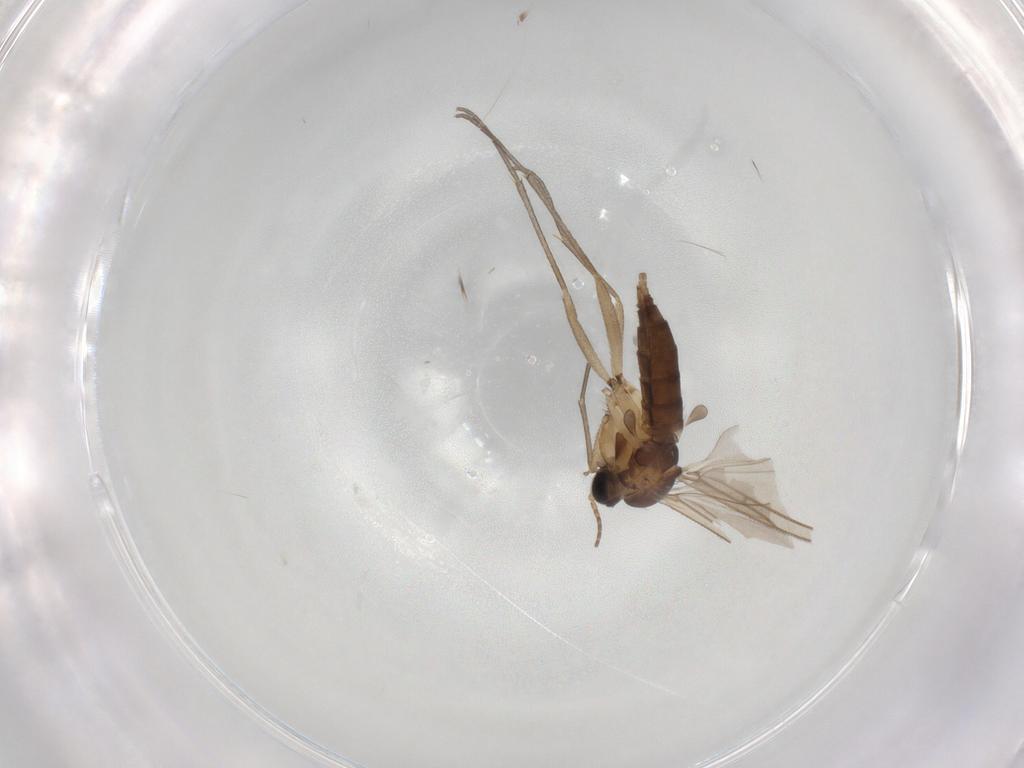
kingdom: Animalia
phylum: Arthropoda
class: Insecta
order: Diptera
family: Sciaridae
